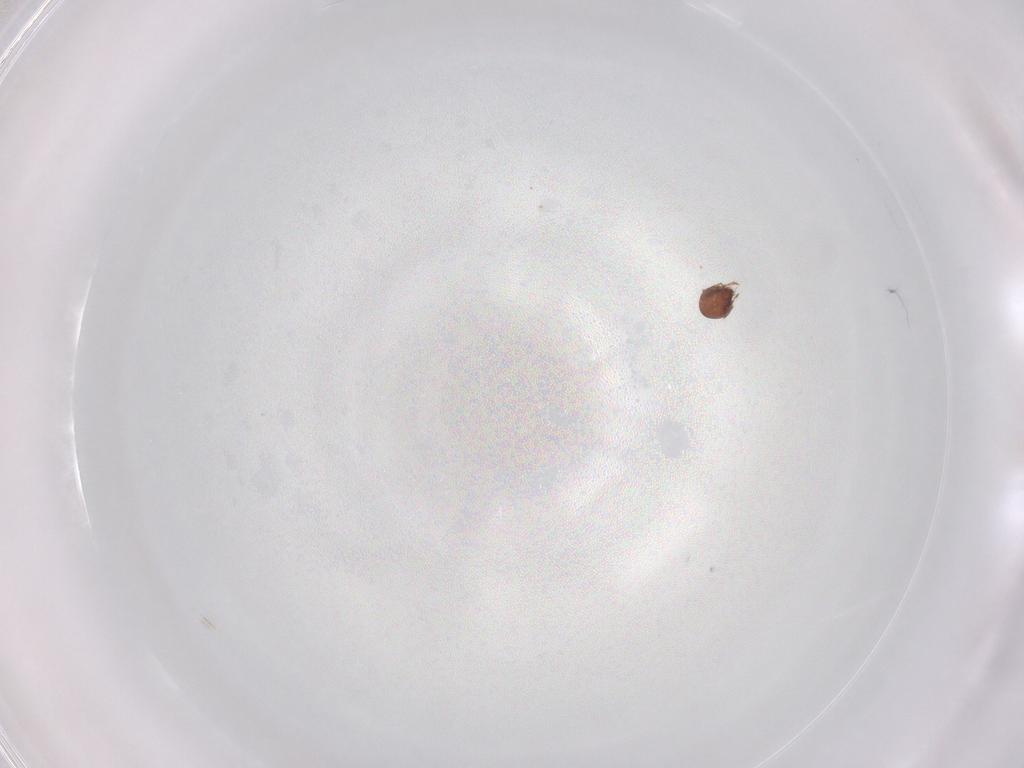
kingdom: Animalia
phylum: Arthropoda
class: Arachnida
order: Sarcoptiformes
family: Ceratozetidae
